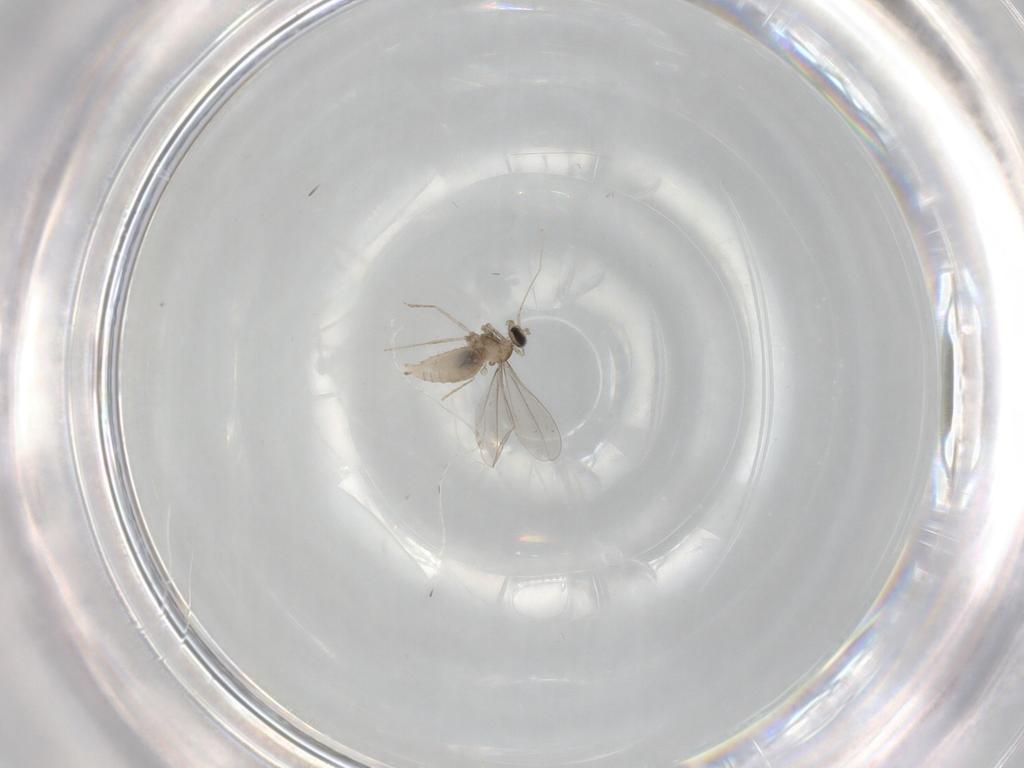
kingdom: Animalia
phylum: Arthropoda
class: Insecta
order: Diptera
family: Cecidomyiidae
